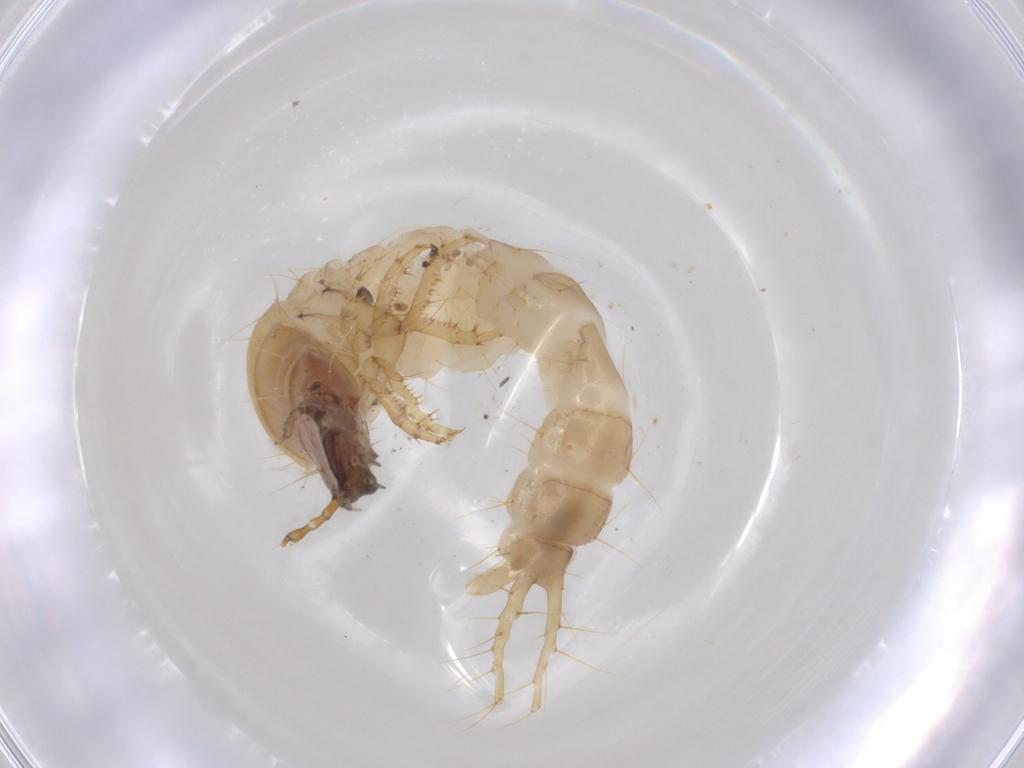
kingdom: Animalia
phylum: Arthropoda
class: Insecta
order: Coleoptera
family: Carabidae
